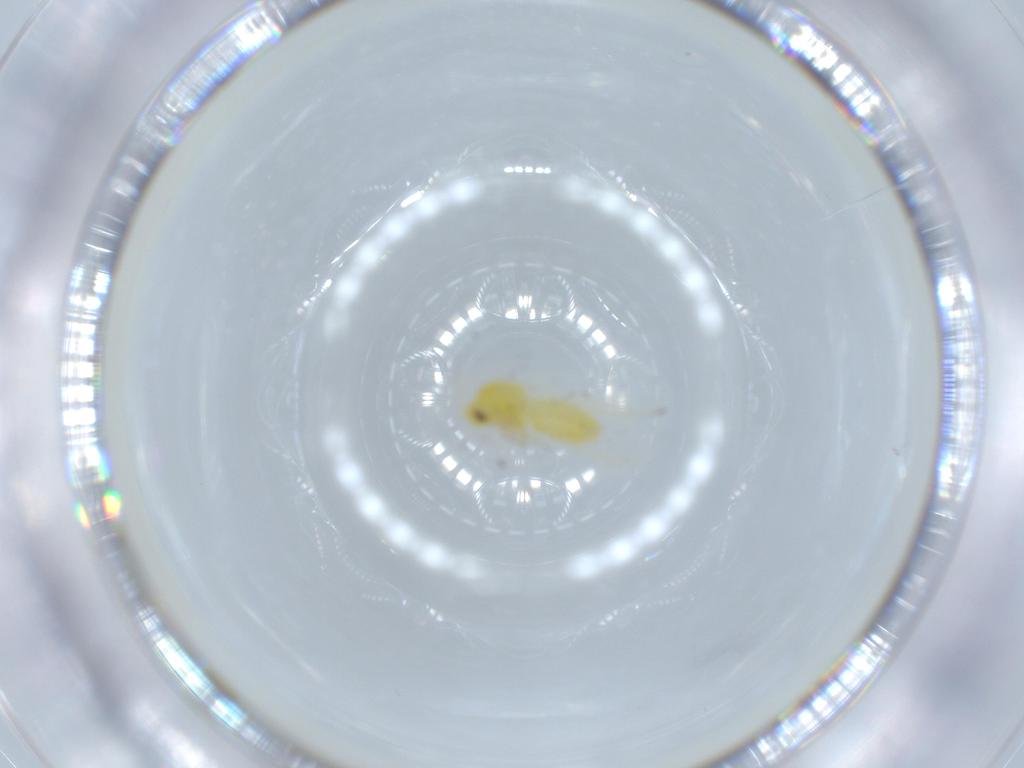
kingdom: Animalia
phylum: Arthropoda
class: Insecta
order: Hemiptera
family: Aleyrodidae
